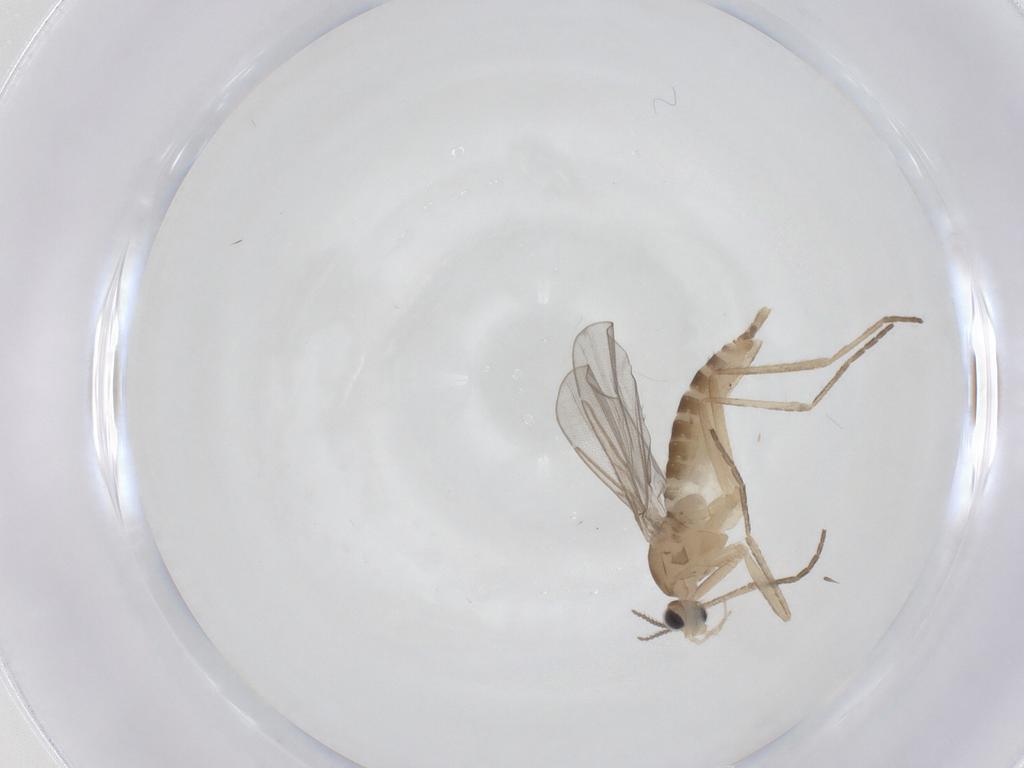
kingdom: Animalia
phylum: Arthropoda
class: Insecta
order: Diptera
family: Cecidomyiidae
